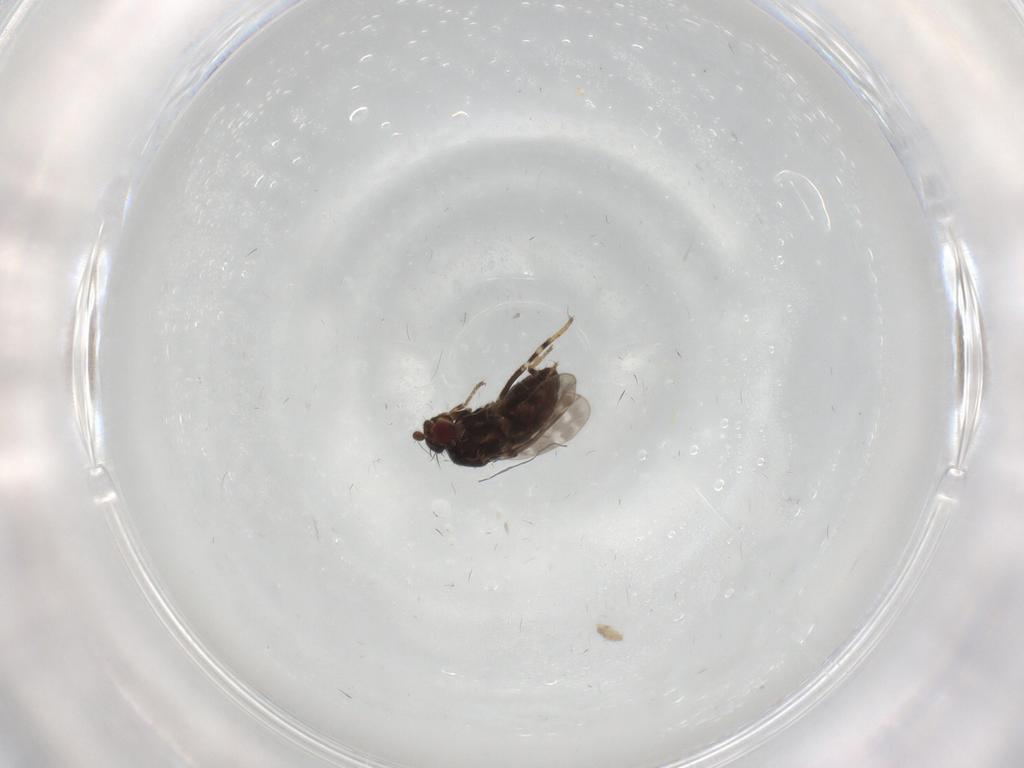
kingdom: Animalia
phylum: Arthropoda
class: Insecta
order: Diptera
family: Sphaeroceridae
